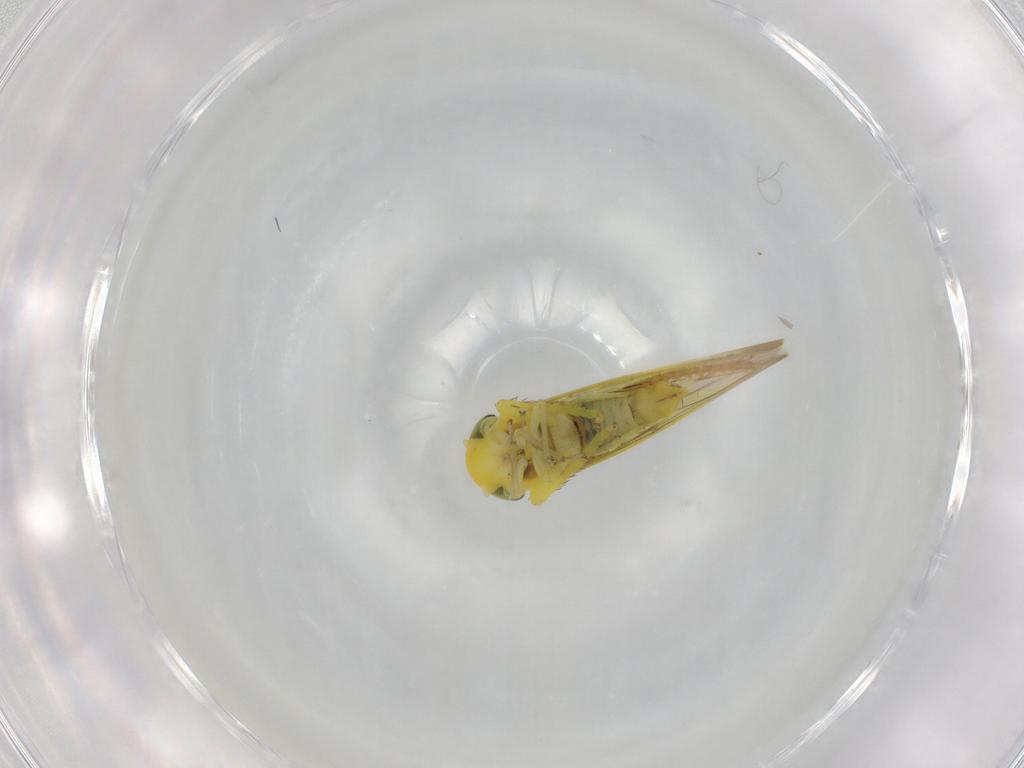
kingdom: Animalia
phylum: Arthropoda
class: Insecta
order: Hemiptera
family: Cicadellidae
